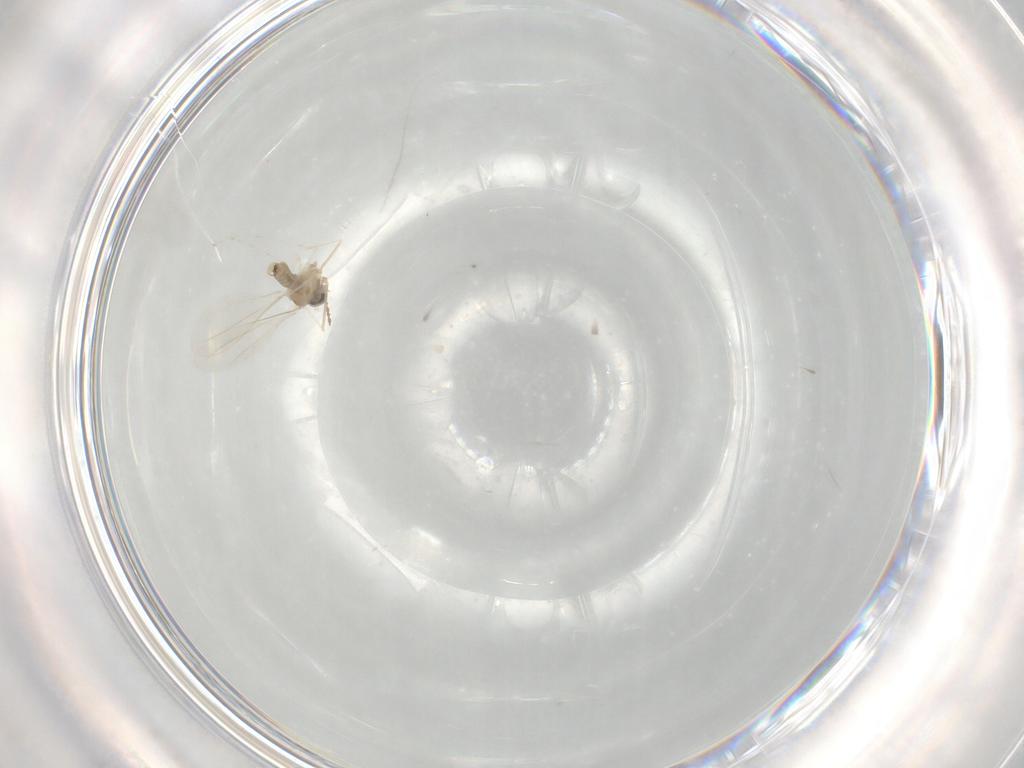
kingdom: Animalia
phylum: Arthropoda
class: Insecta
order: Diptera
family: Cecidomyiidae
